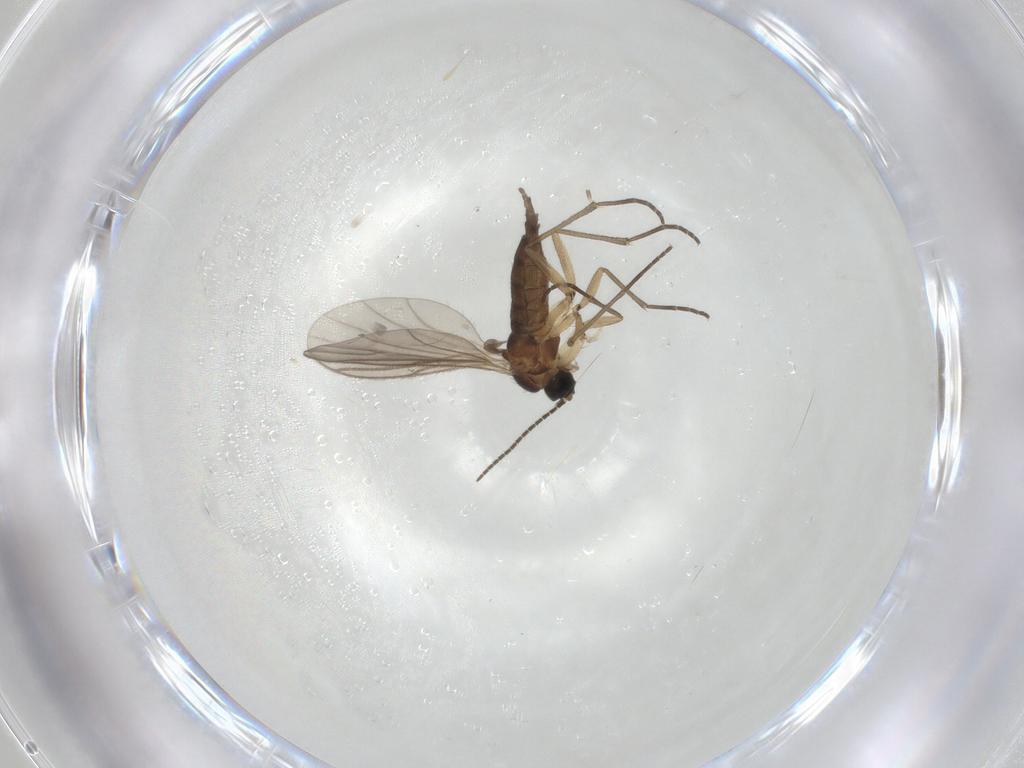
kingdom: Animalia
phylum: Arthropoda
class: Insecta
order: Diptera
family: Sciaridae
